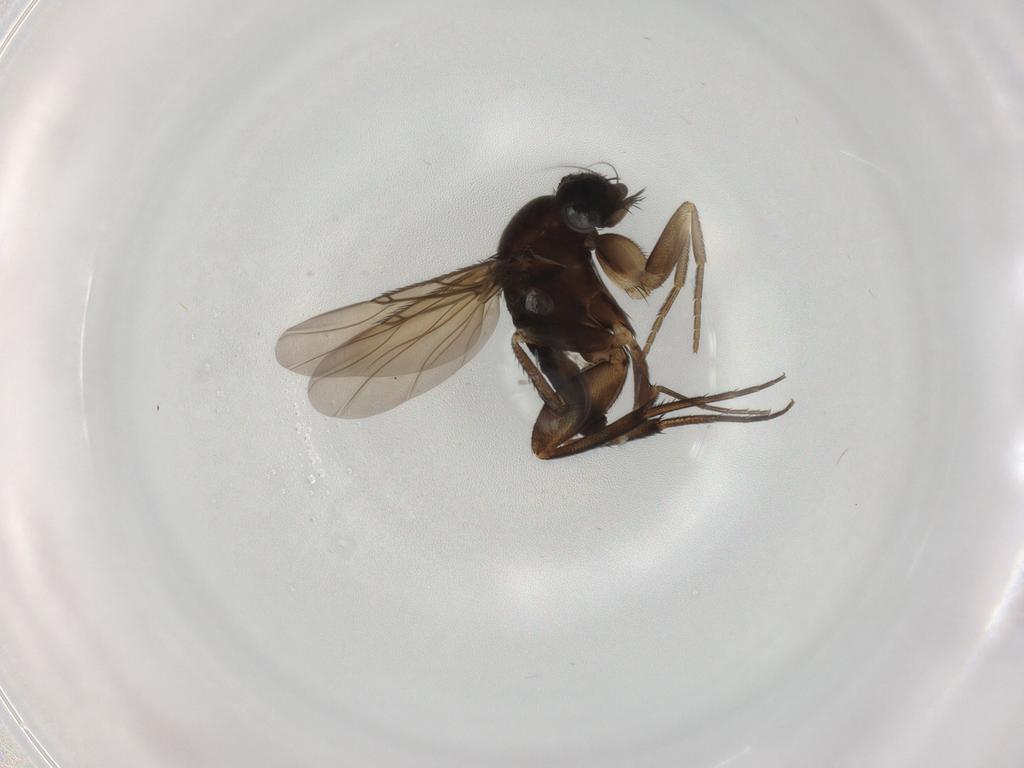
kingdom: Animalia
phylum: Arthropoda
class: Insecta
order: Diptera
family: Phoridae
